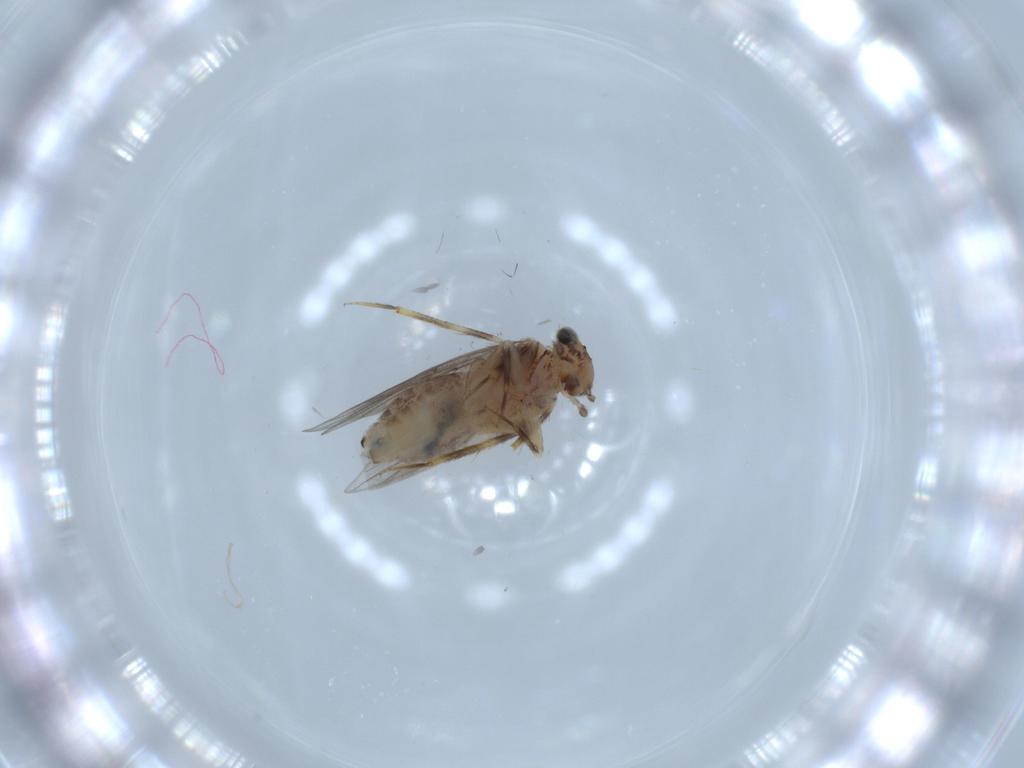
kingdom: Animalia
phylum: Arthropoda
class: Insecta
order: Psocodea
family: Lepidopsocidae
